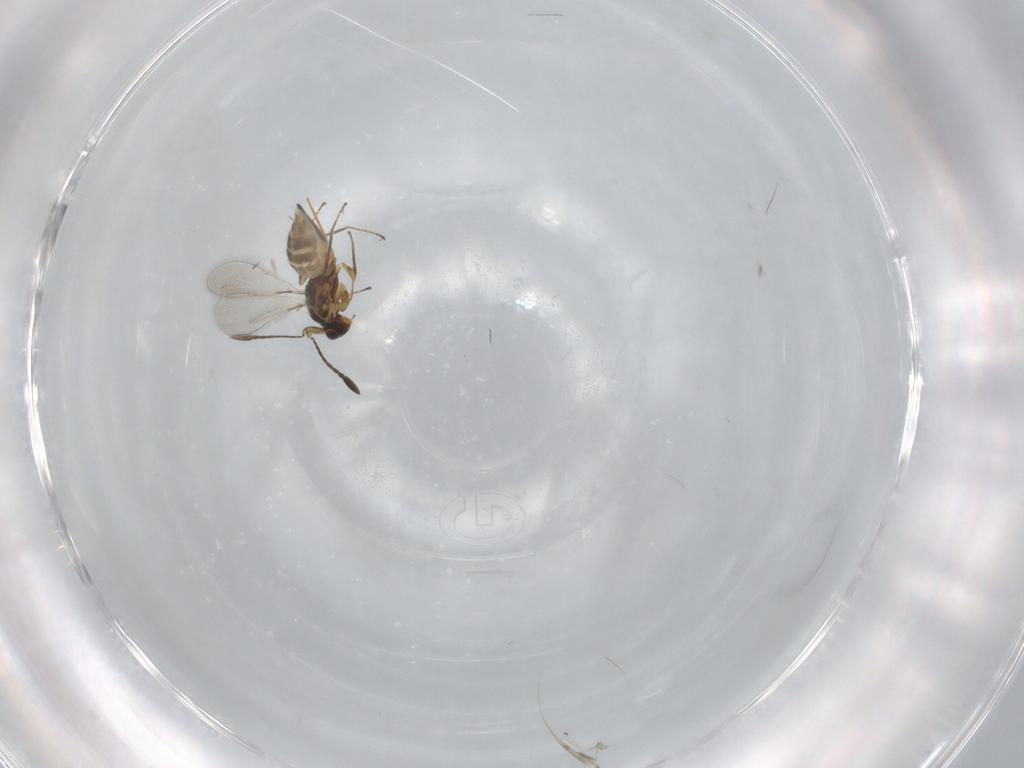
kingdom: Animalia
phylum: Arthropoda
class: Insecta
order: Hymenoptera
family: Mymaridae
